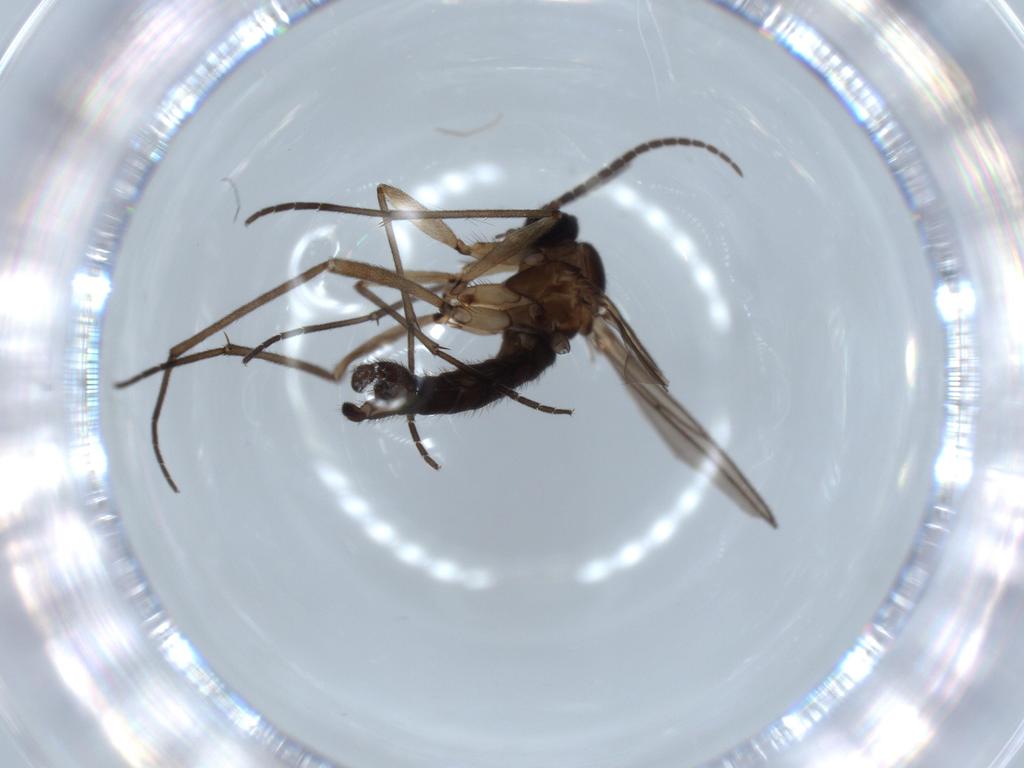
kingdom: Animalia
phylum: Arthropoda
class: Insecta
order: Diptera
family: Sciaridae
